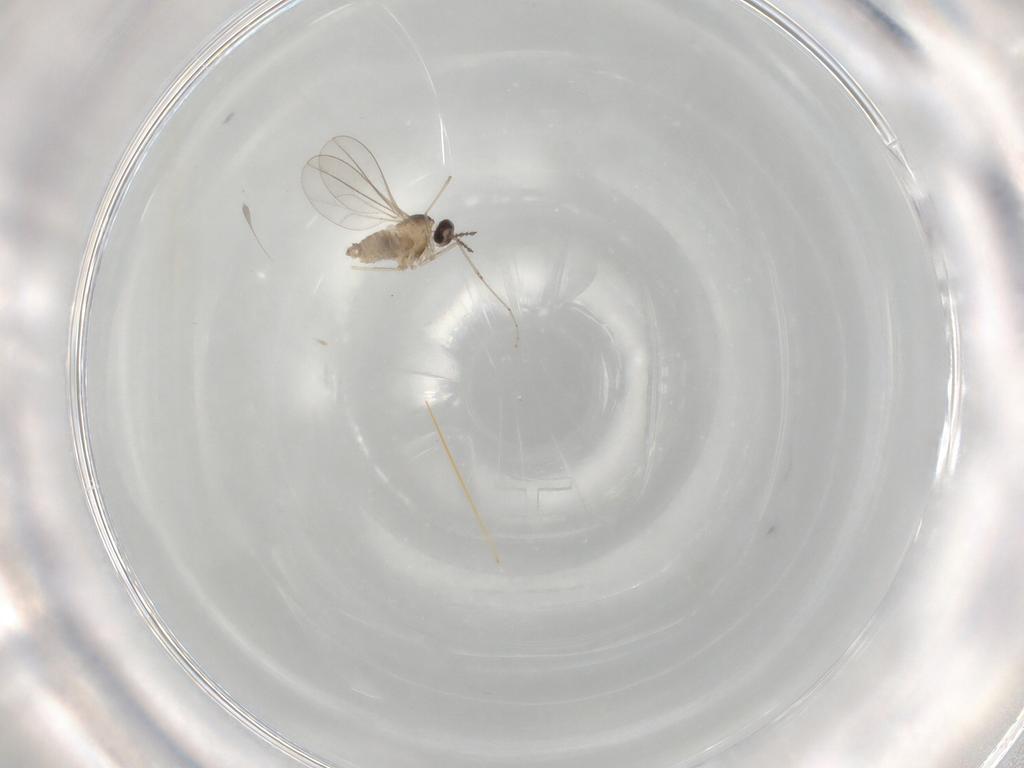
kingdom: Animalia
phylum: Arthropoda
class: Insecta
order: Diptera
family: Cecidomyiidae
